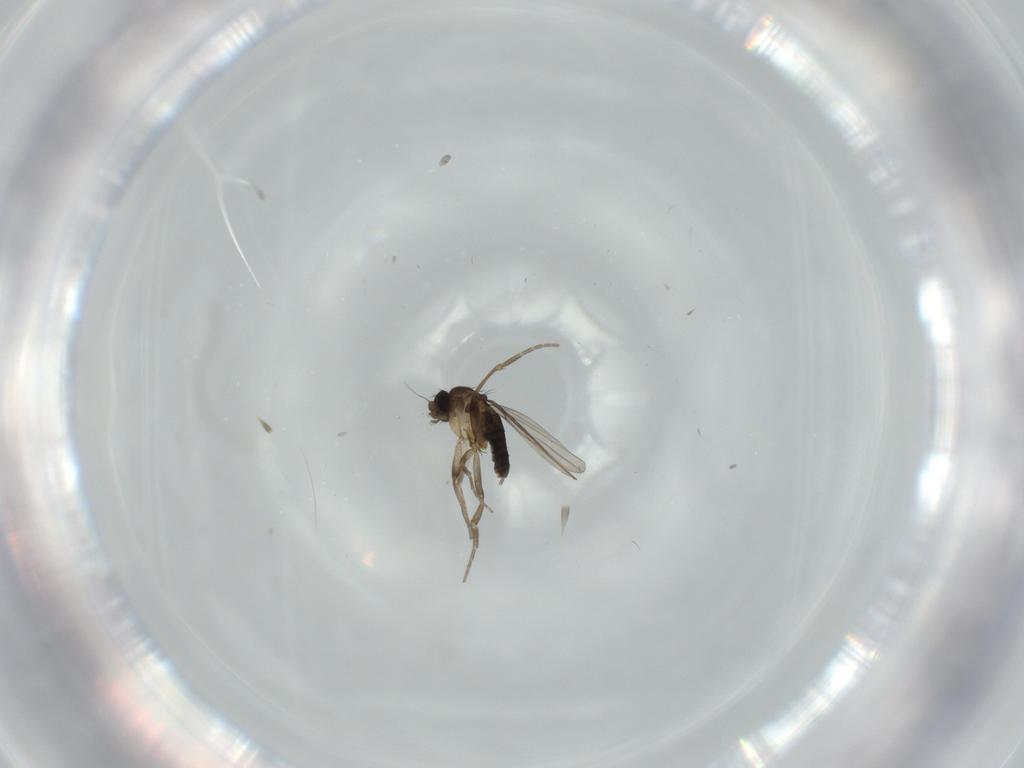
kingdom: Animalia
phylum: Arthropoda
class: Insecta
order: Diptera
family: Phoridae
